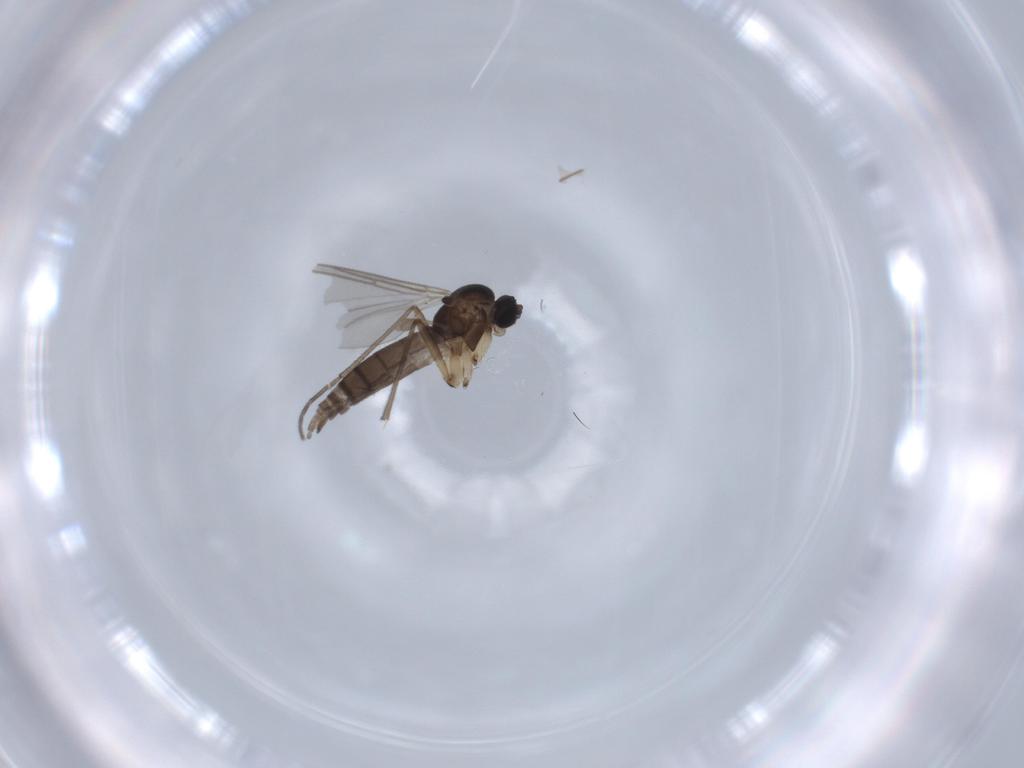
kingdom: Animalia
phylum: Arthropoda
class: Insecta
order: Diptera
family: Sciaridae
